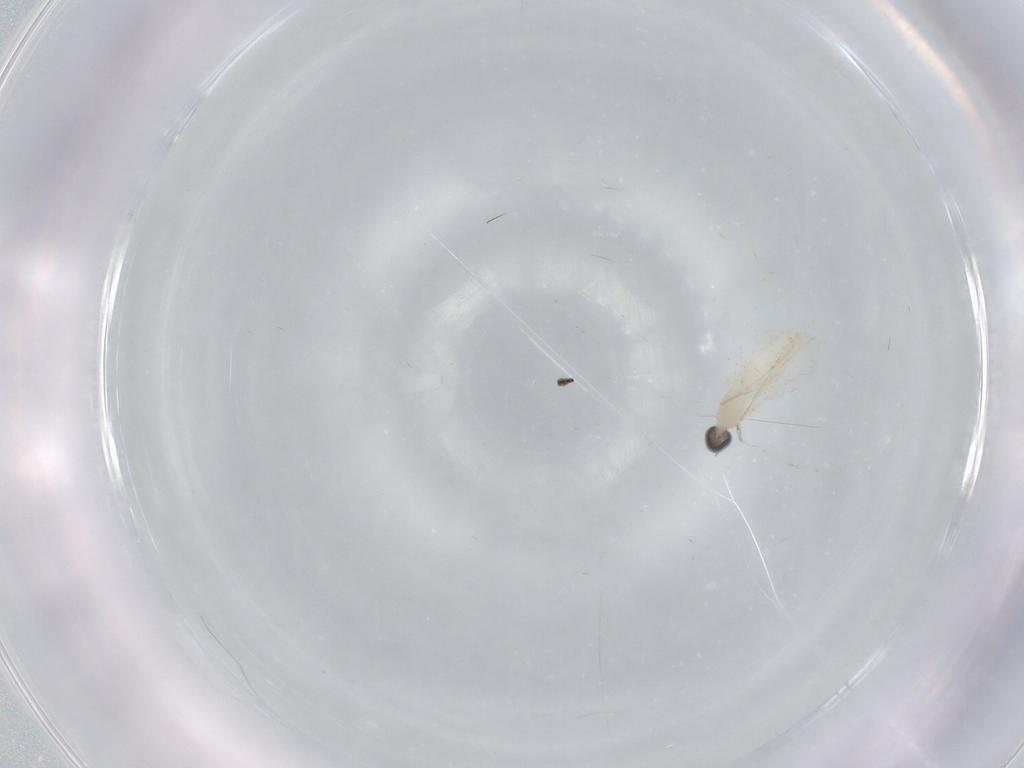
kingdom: Animalia
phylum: Arthropoda
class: Insecta
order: Diptera
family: Cecidomyiidae
